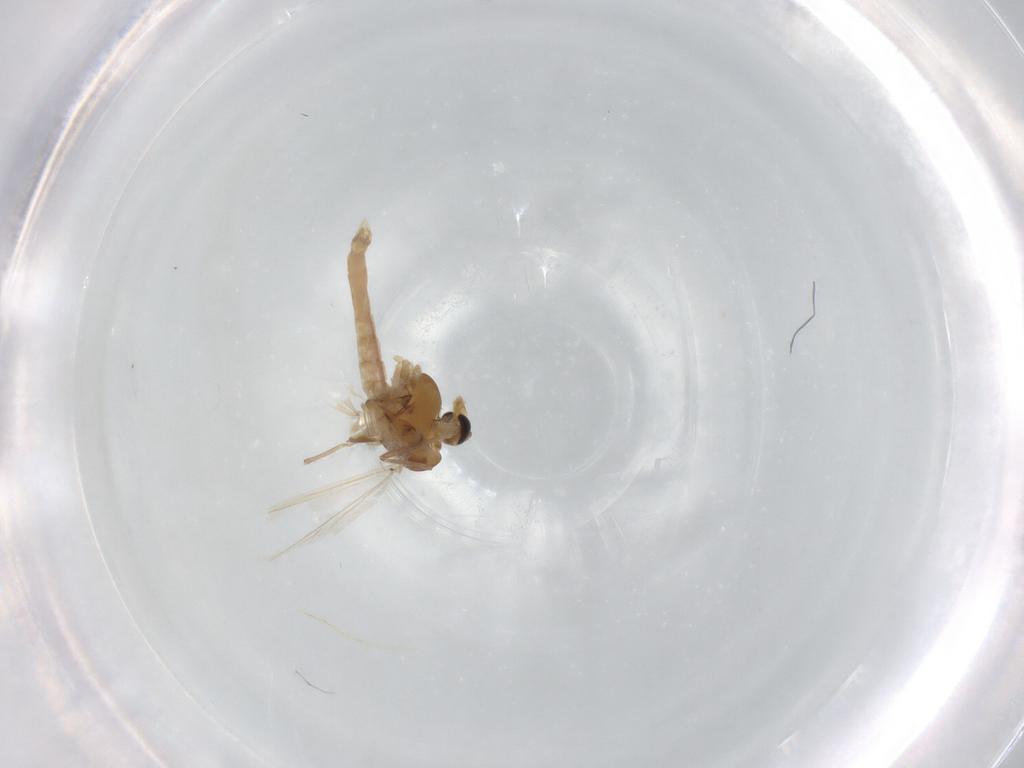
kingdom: Animalia
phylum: Arthropoda
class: Insecta
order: Diptera
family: Chironomidae
